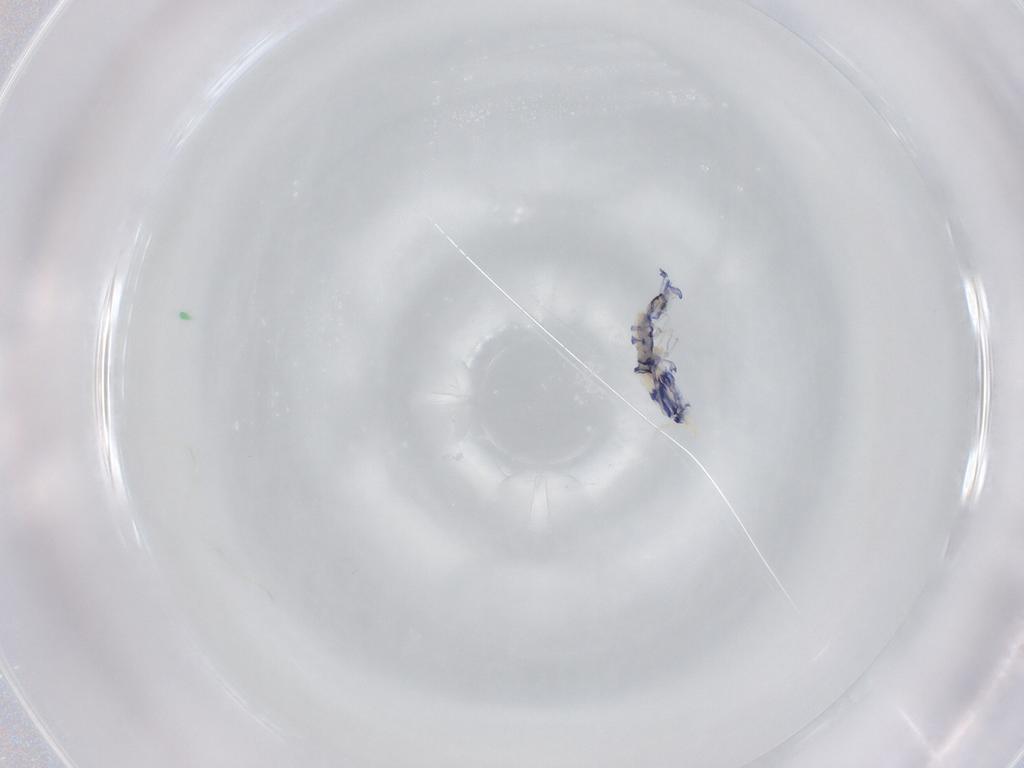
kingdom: Animalia
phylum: Arthropoda
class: Collembola
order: Entomobryomorpha
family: Entomobryidae
